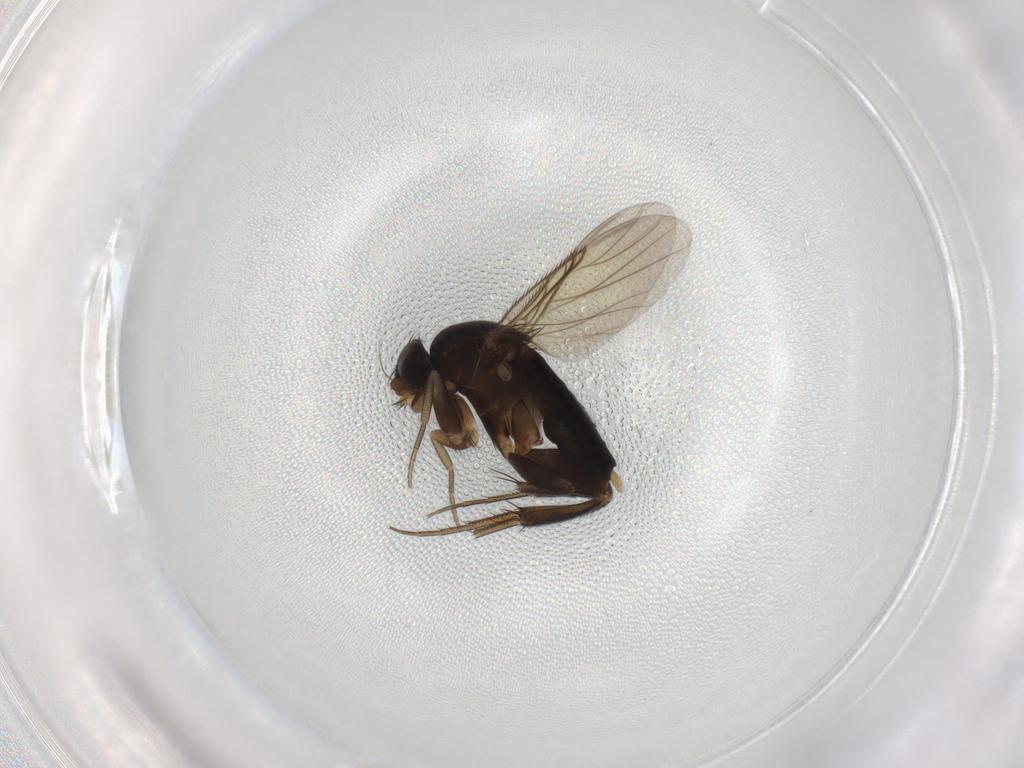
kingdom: Animalia
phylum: Arthropoda
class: Insecta
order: Diptera
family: Phoridae
